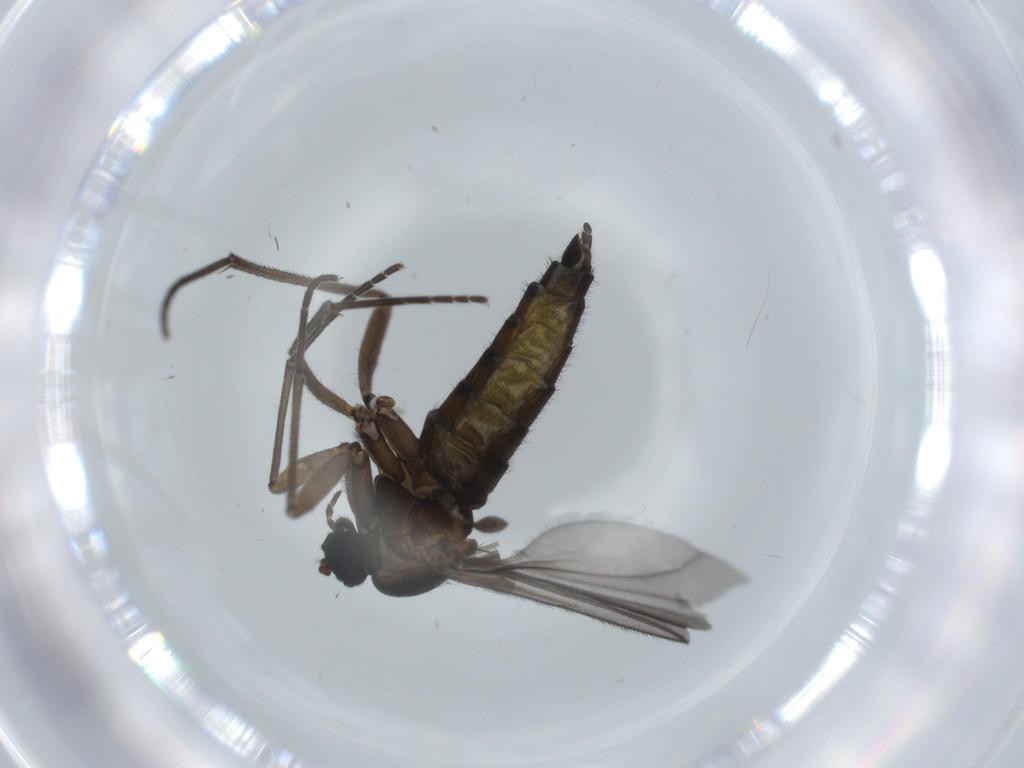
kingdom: Animalia
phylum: Arthropoda
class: Insecta
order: Diptera
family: Sciaridae
